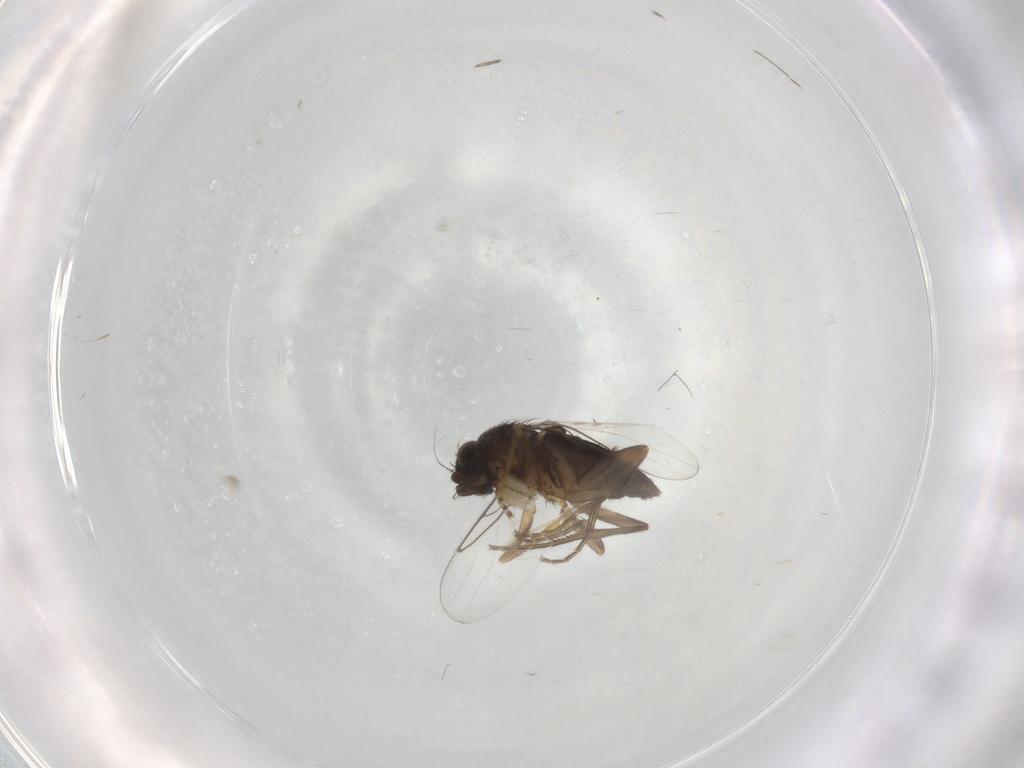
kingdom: Animalia
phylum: Arthropoda
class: Insecta
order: Diptera
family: Phoridae
